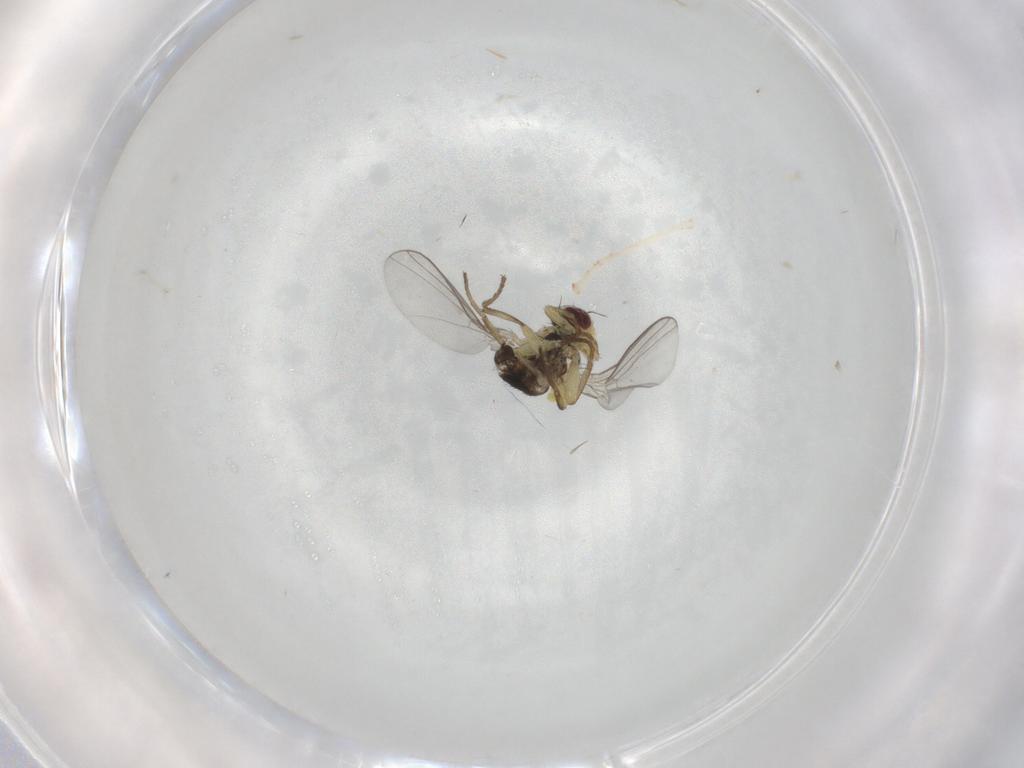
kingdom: Animalia
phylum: Arthropoda
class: Insecta
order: Diptera
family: Agromyzidae
